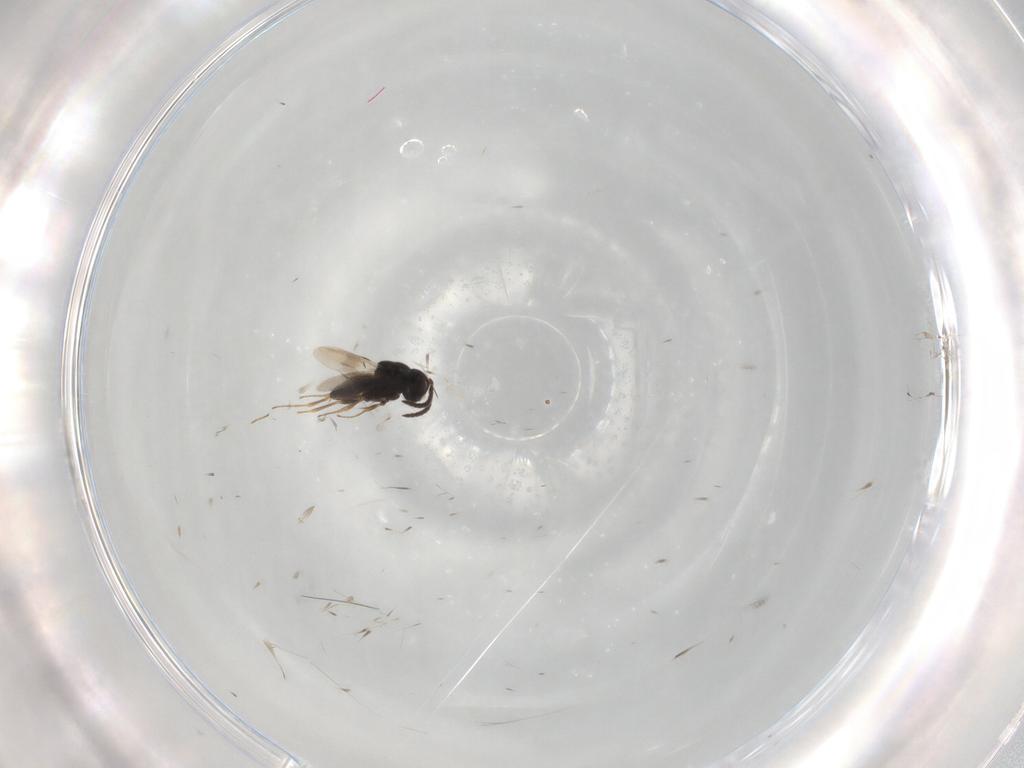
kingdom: Animalia
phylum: Arthropoda
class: Insecta
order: Hymenoptera
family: Scelionidae
